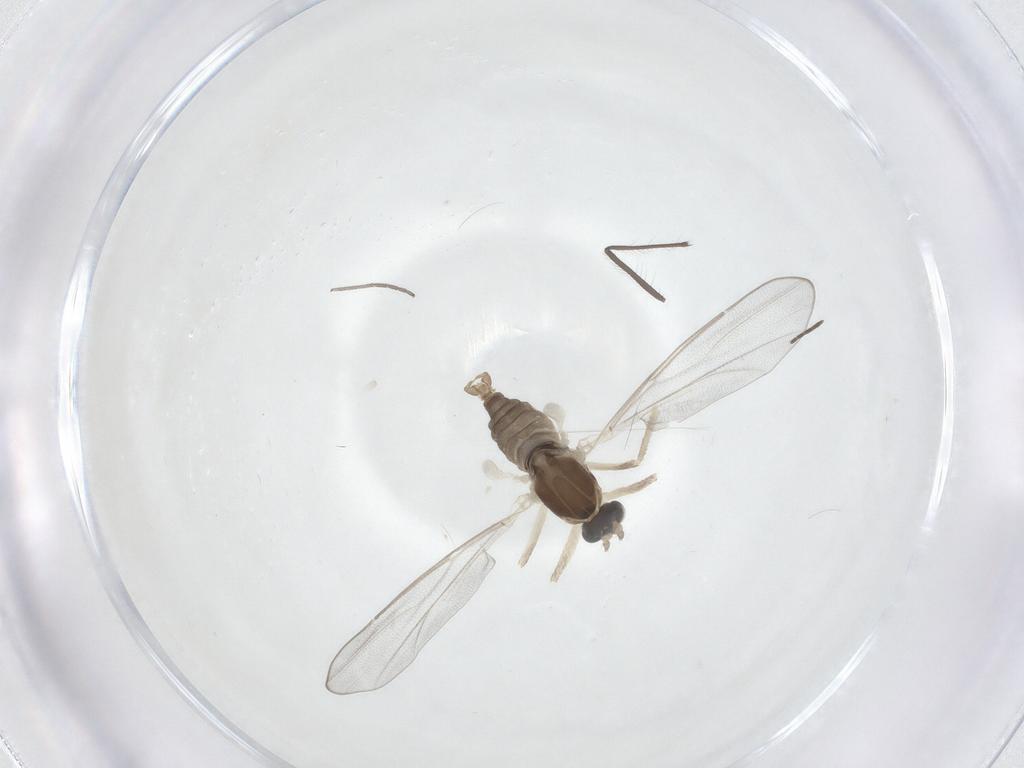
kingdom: Animalia
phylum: Arthropoda
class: Insecta
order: Diptera
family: Cecidomyiidae
